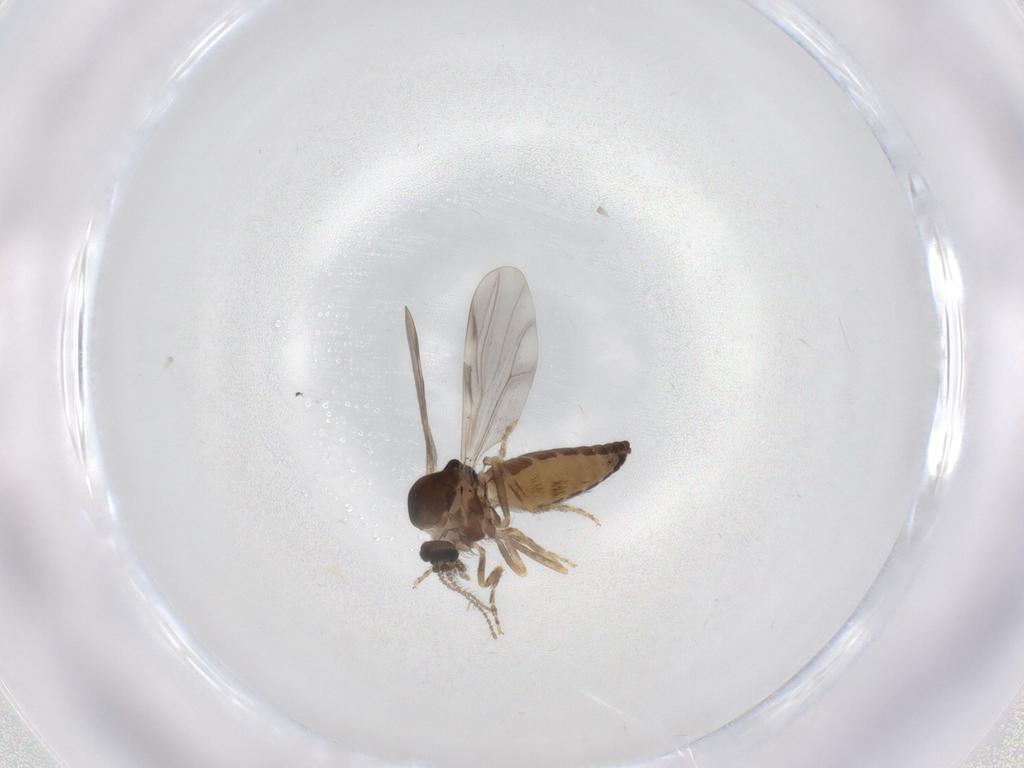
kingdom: Animalia
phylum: Arthropoda
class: Insecta
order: Diptera
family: Ceratopogonidae
